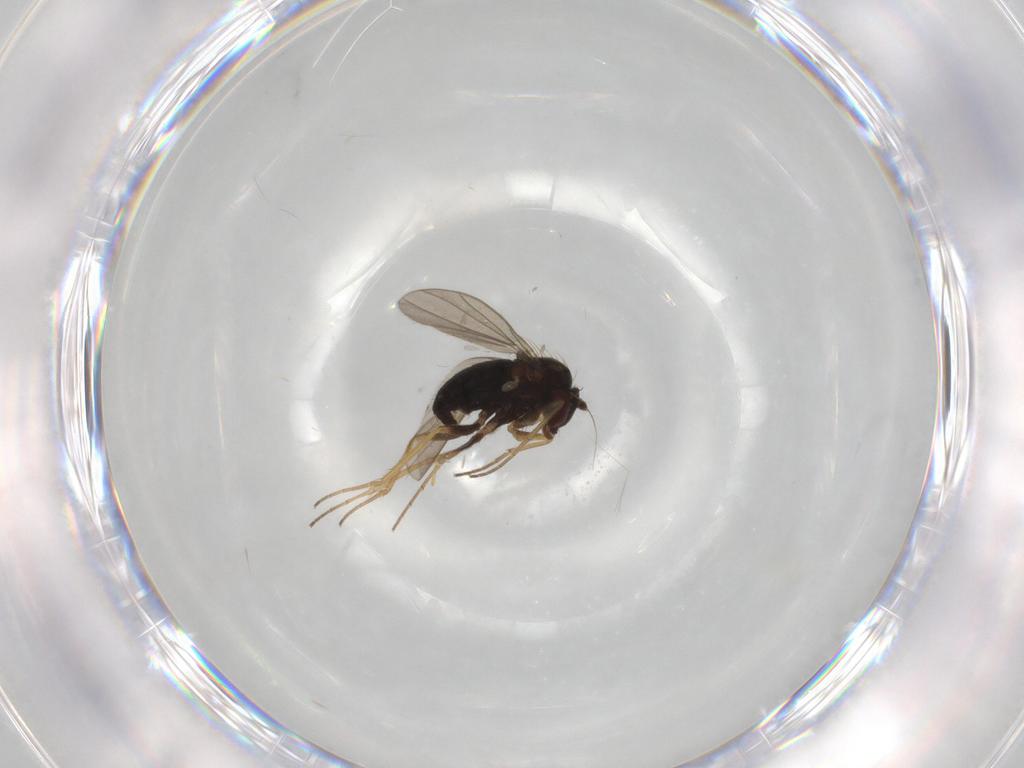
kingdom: Animalia
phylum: Arthropoda
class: Insecta
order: Diptera
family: Dolichopodidae
